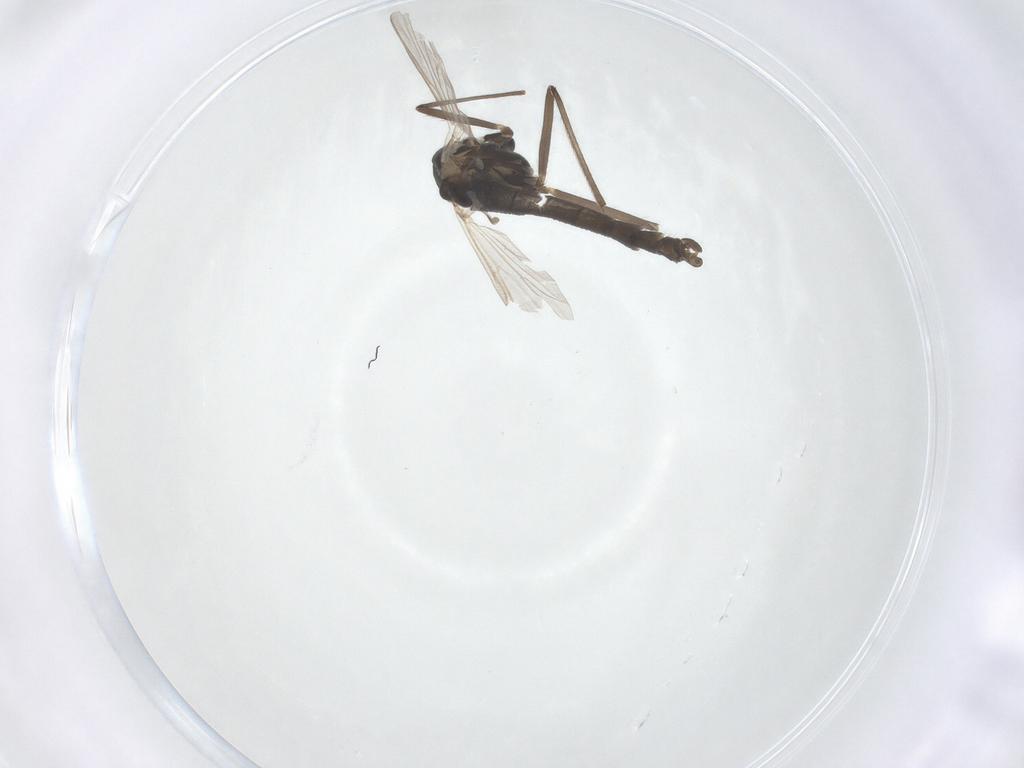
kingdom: Animalia
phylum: Arthropoda
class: Insecta
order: Diptera
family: Chironomidae
